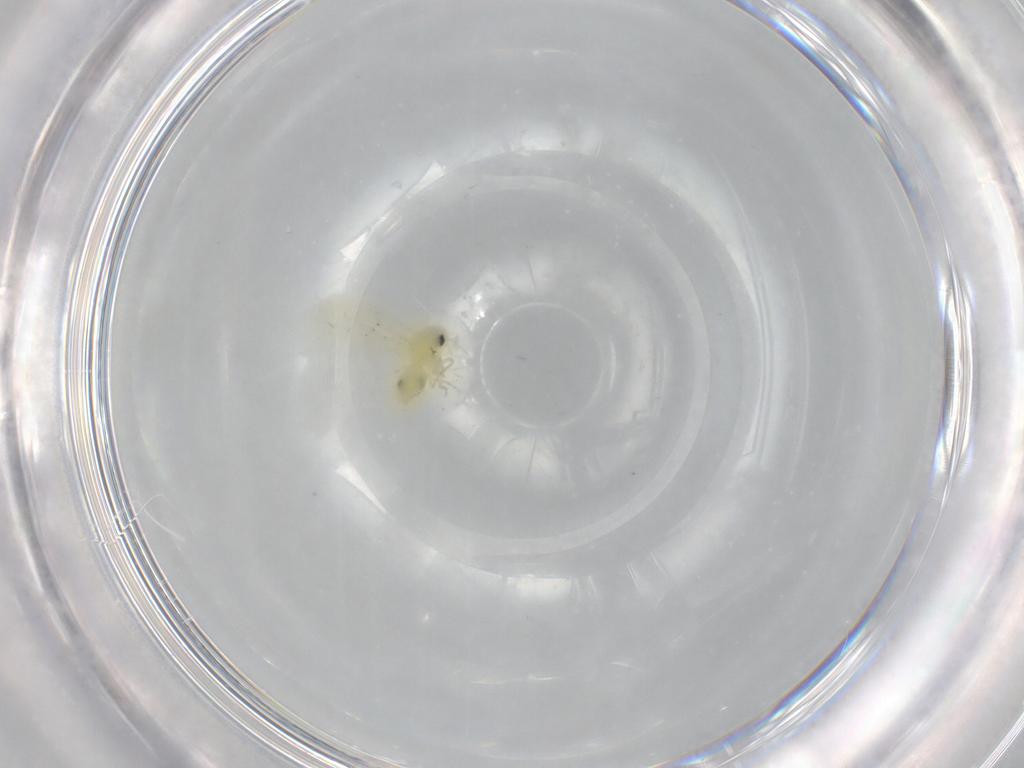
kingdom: Animalia
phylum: Arthropoda
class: Insecta
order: Hemiptera
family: Aleyrodidae
